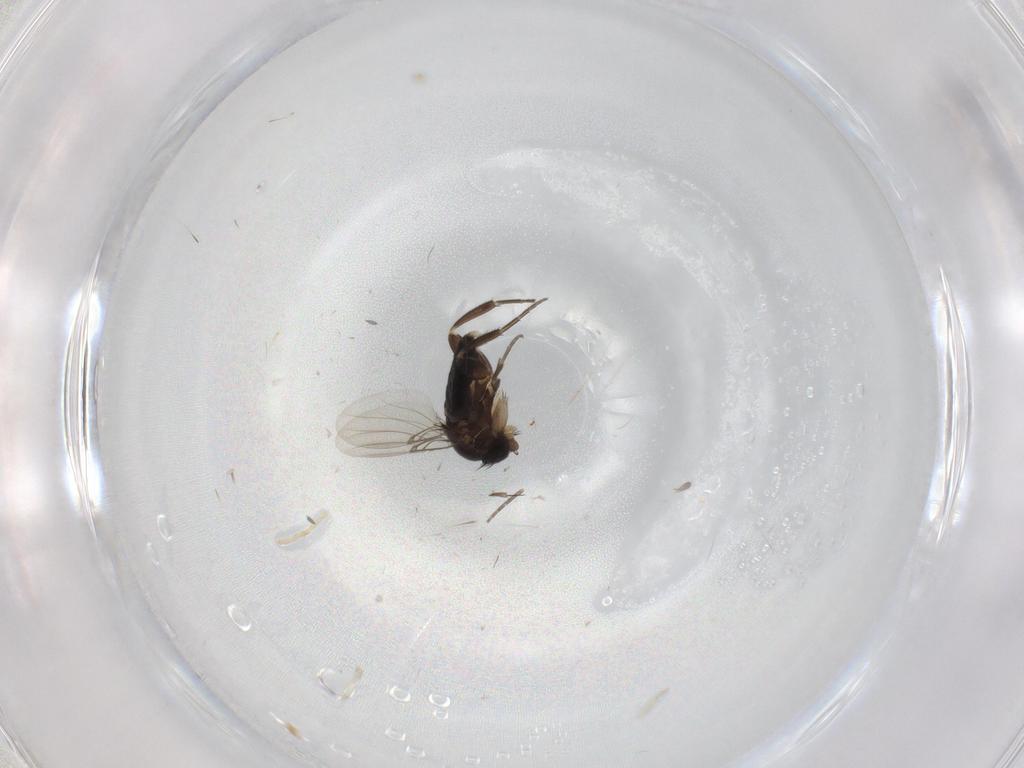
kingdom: Animalia
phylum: Arthropoda
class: Insecta
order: Diptera
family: Phoridae
